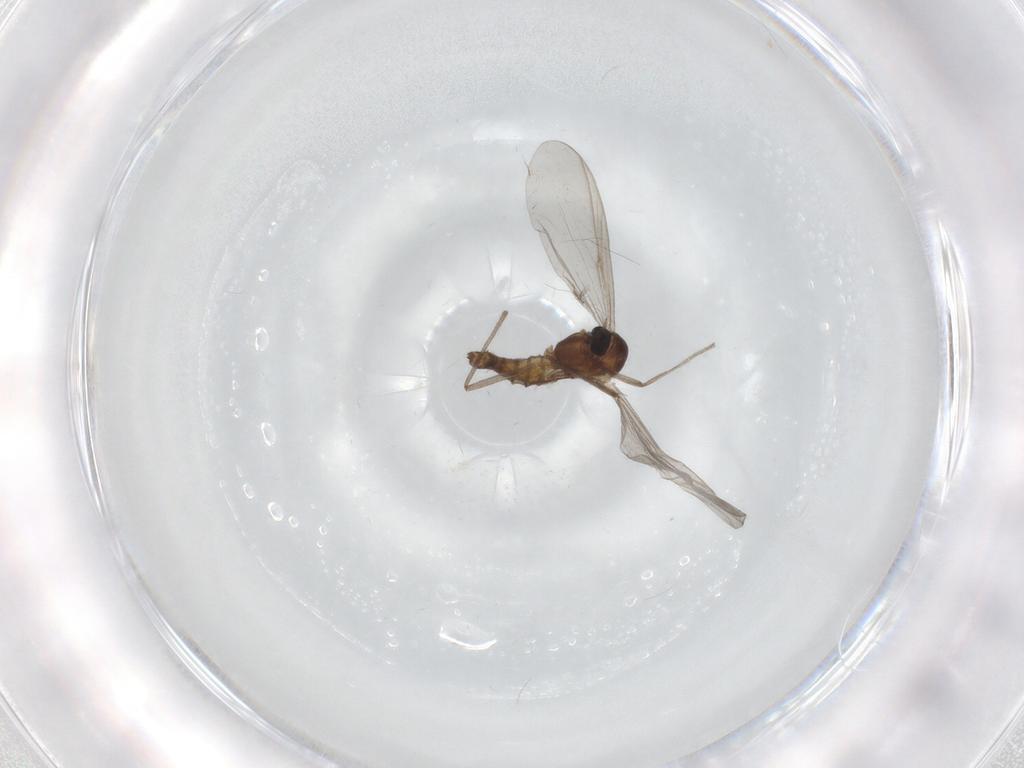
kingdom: Animalia
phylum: Arthropoda
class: Insecta
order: Diptera
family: Chironomidae
